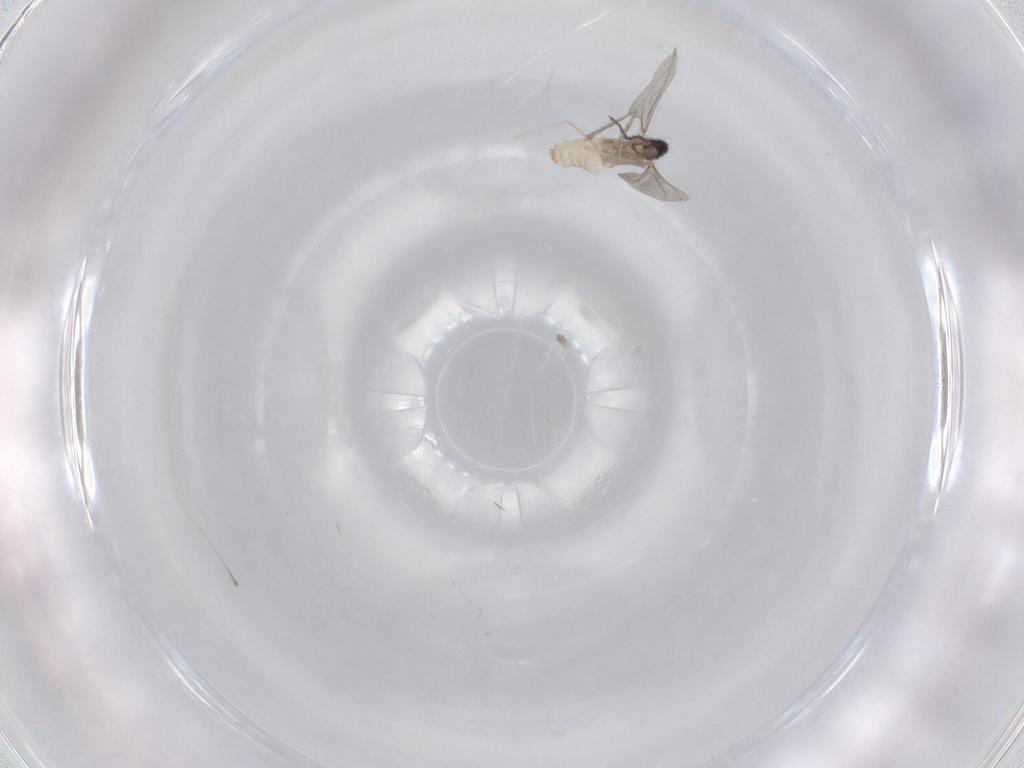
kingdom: Animalia
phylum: Arthropoda
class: Insecta
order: Diptera
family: Cecidomyiidae
